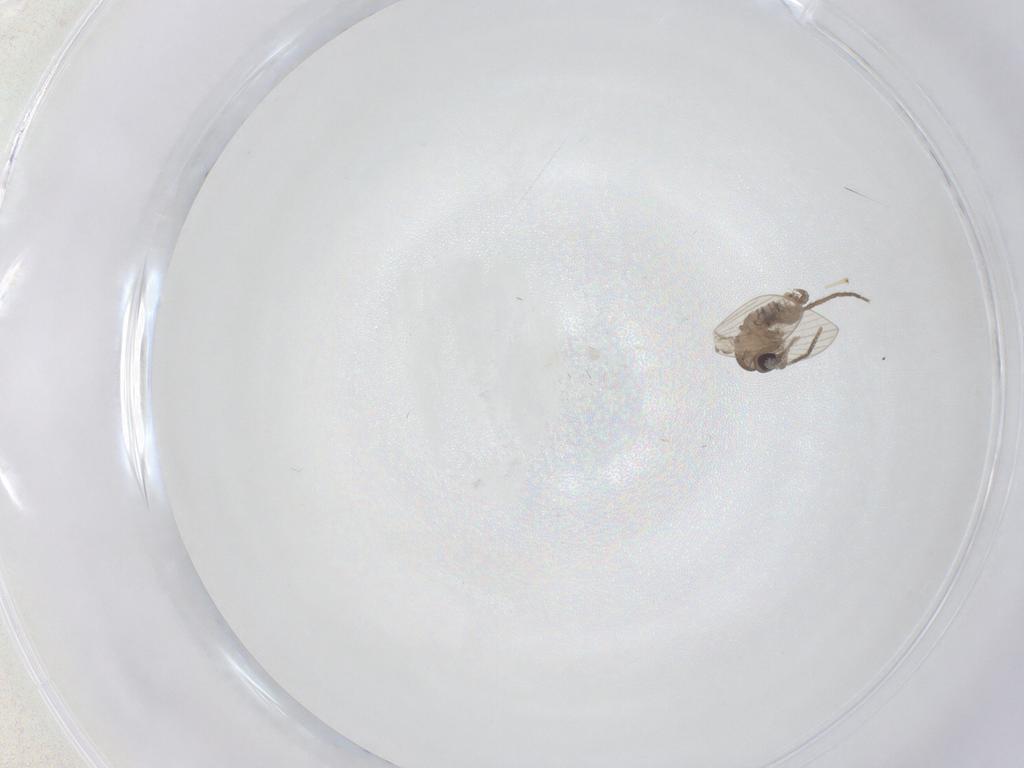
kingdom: Animalia
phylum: Arthropoda
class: Insecta
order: Diptera
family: Psychodidae
